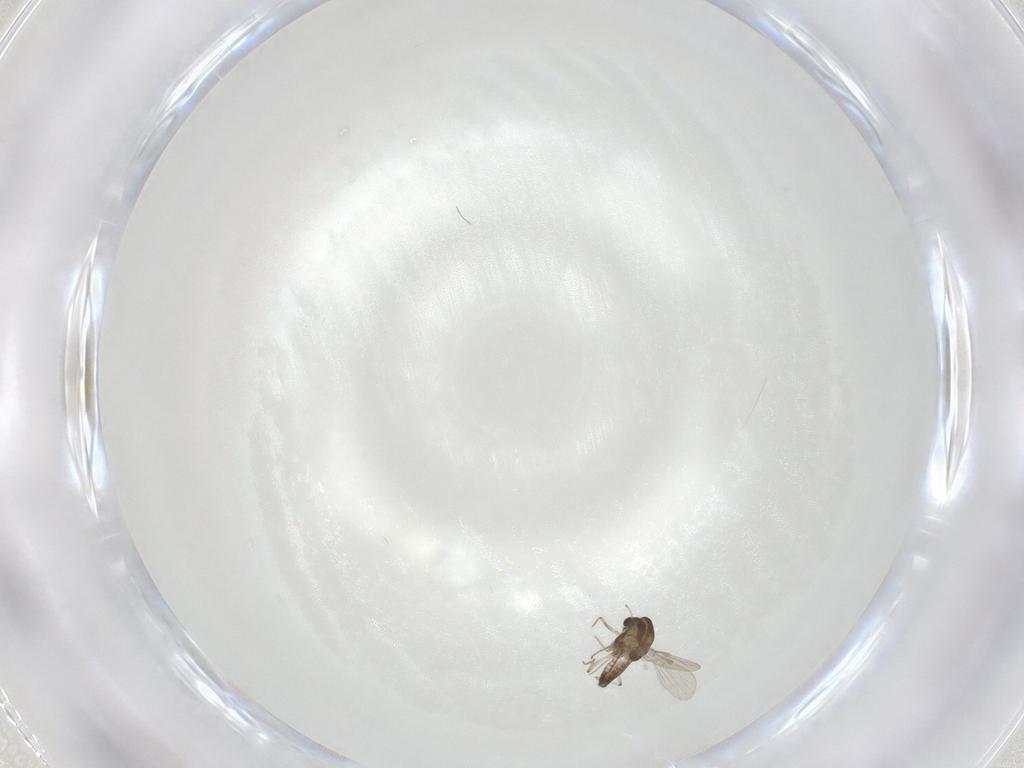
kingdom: Animalia
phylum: Arthropoda
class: Insecta
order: Diptera
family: Chironomidae
